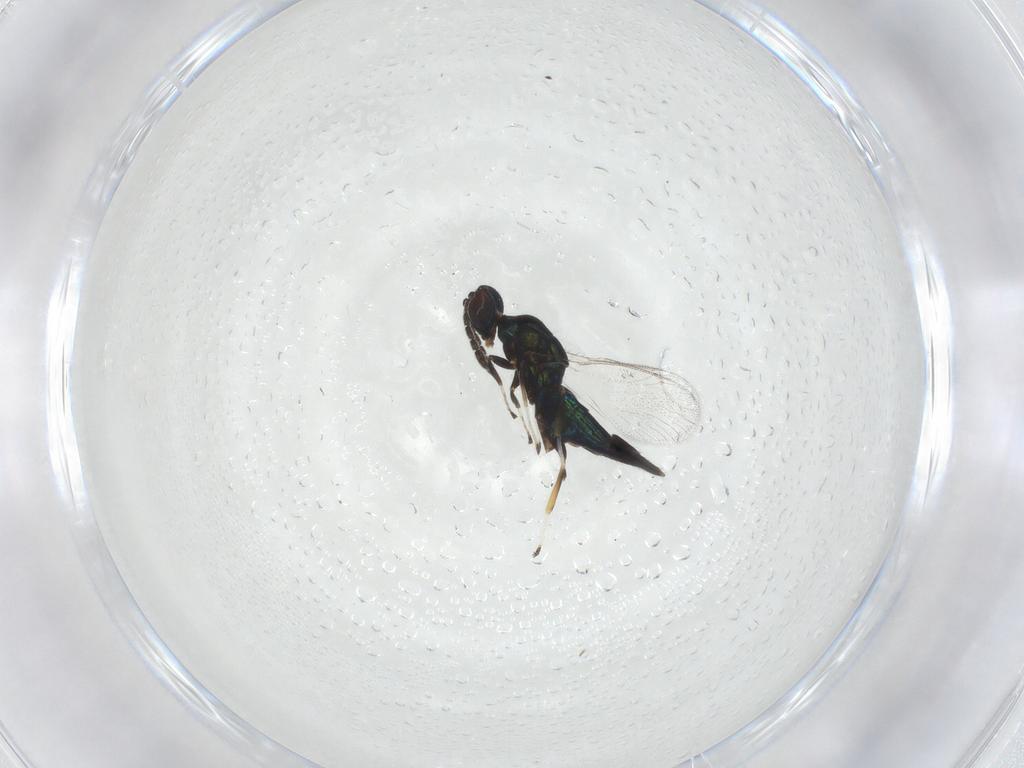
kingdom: Animalia
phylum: Arthropoda
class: Insecta
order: Hymenoptera
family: Eulophidae
